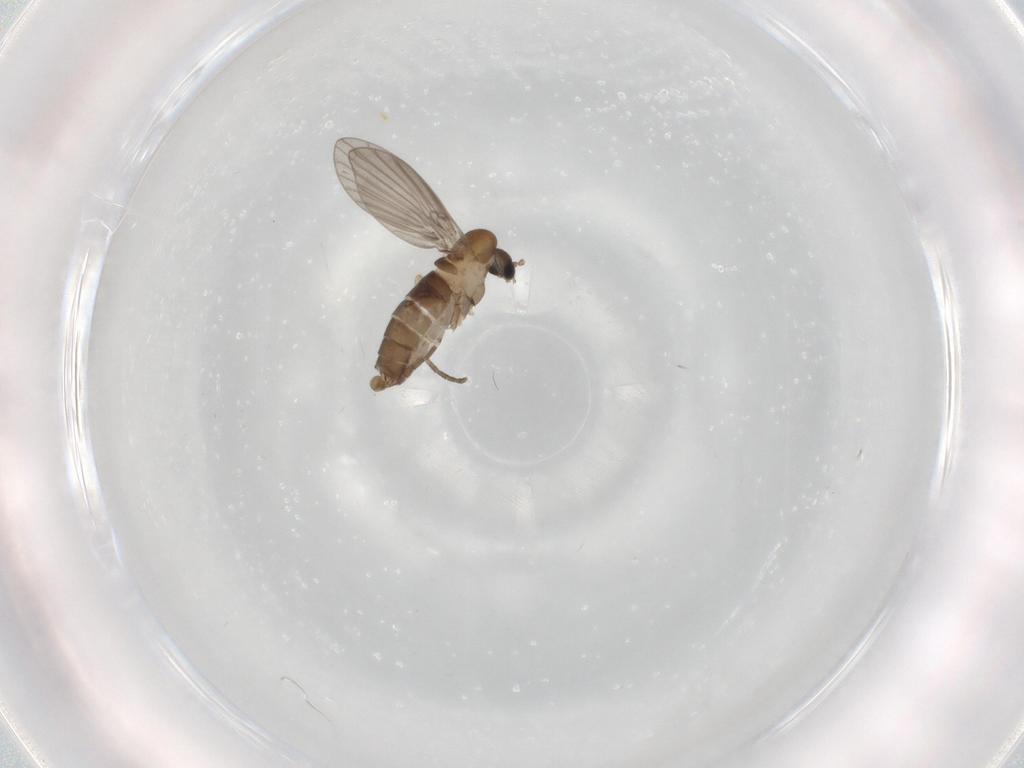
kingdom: Animalia
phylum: Arthropoda
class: Insecta
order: Diptera
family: Psychodidae
